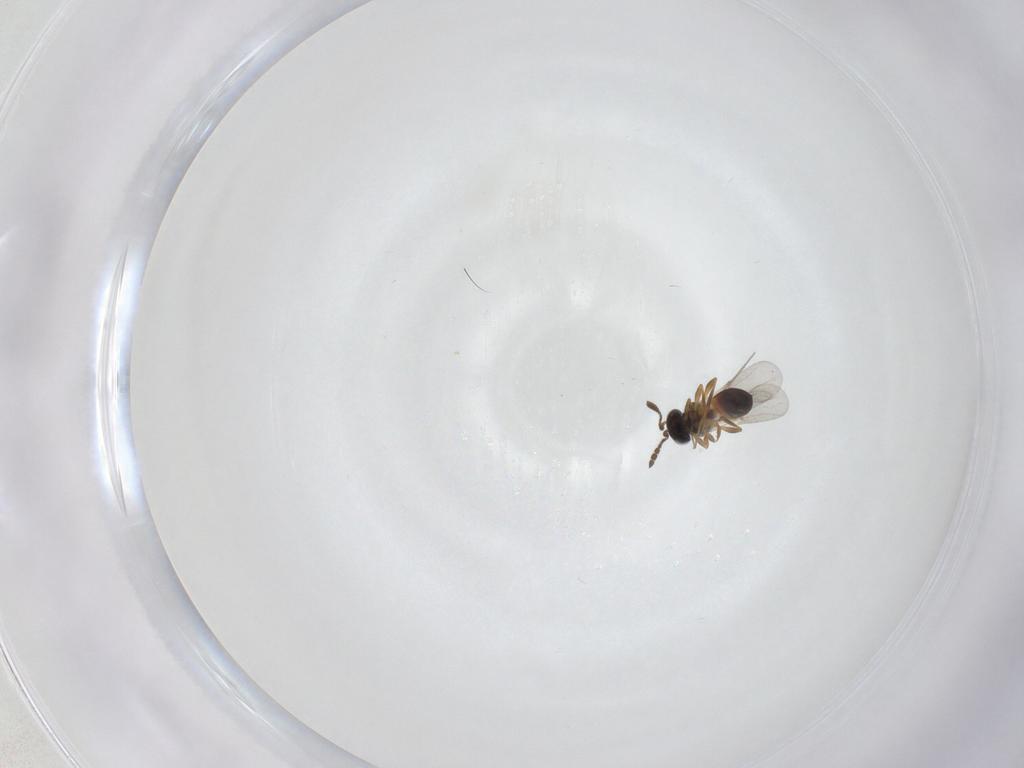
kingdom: Animalia
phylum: Arthropoda
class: Insecta
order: Hymenoptera
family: Platygastridae
